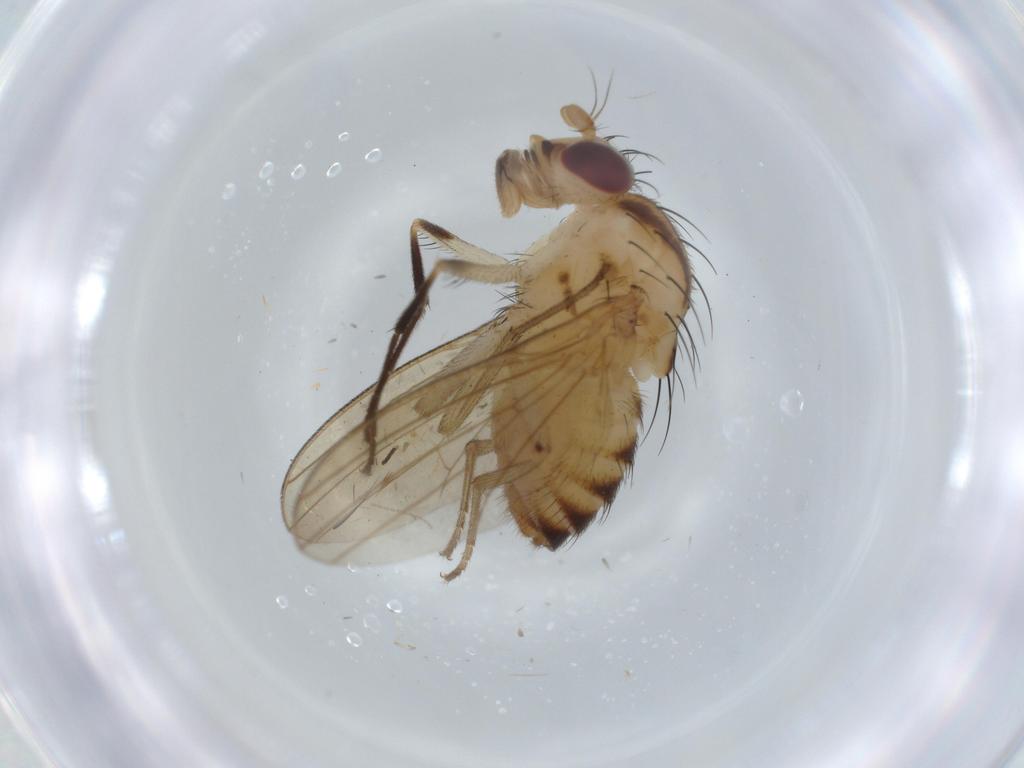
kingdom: Animalia
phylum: Arthropoda
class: Insecta
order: Diptera
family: Cecidomyiidae
